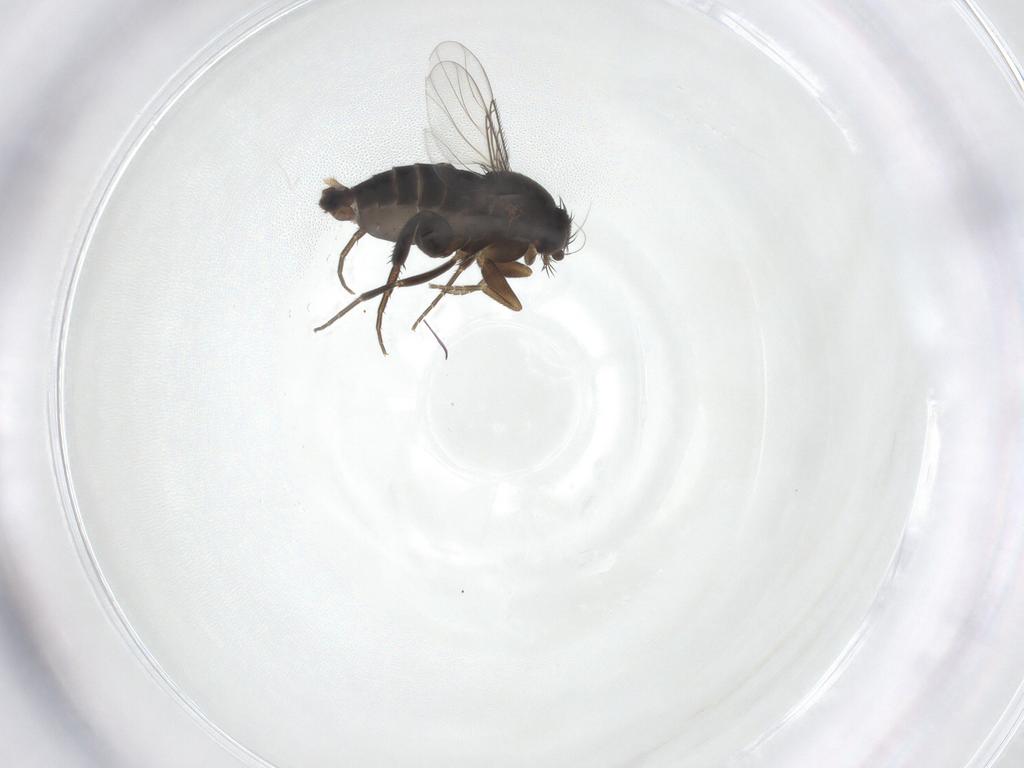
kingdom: Animalia
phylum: Arthropoda
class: Insecta
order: Diptera
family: Phoridae
